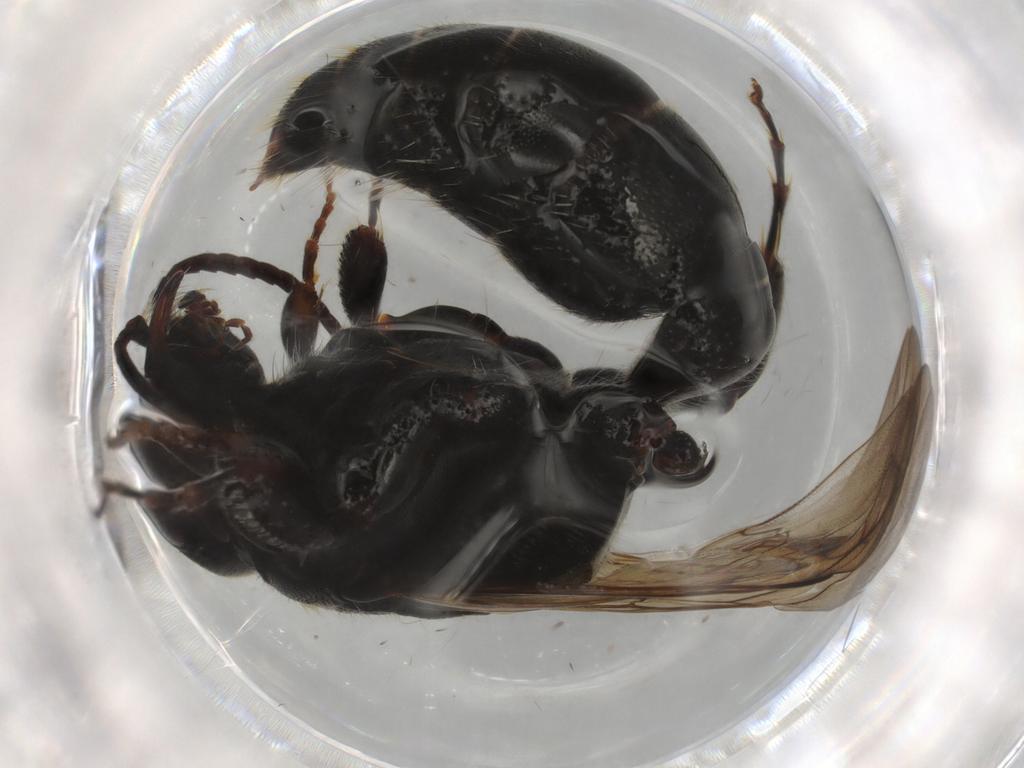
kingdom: Animalia
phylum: Arthropoda
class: Insecta
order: Hymenoptera
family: Tiphiidae
